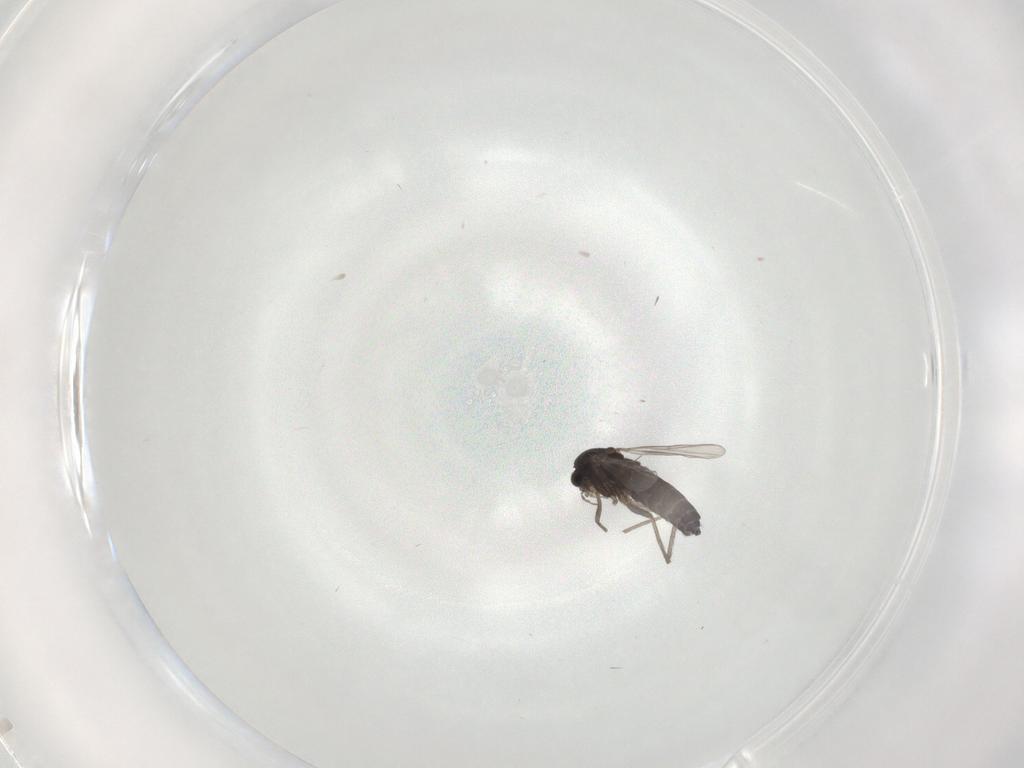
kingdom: Animalia
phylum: Arthropoda
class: Insecta
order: Diptera
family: Chironomidae
